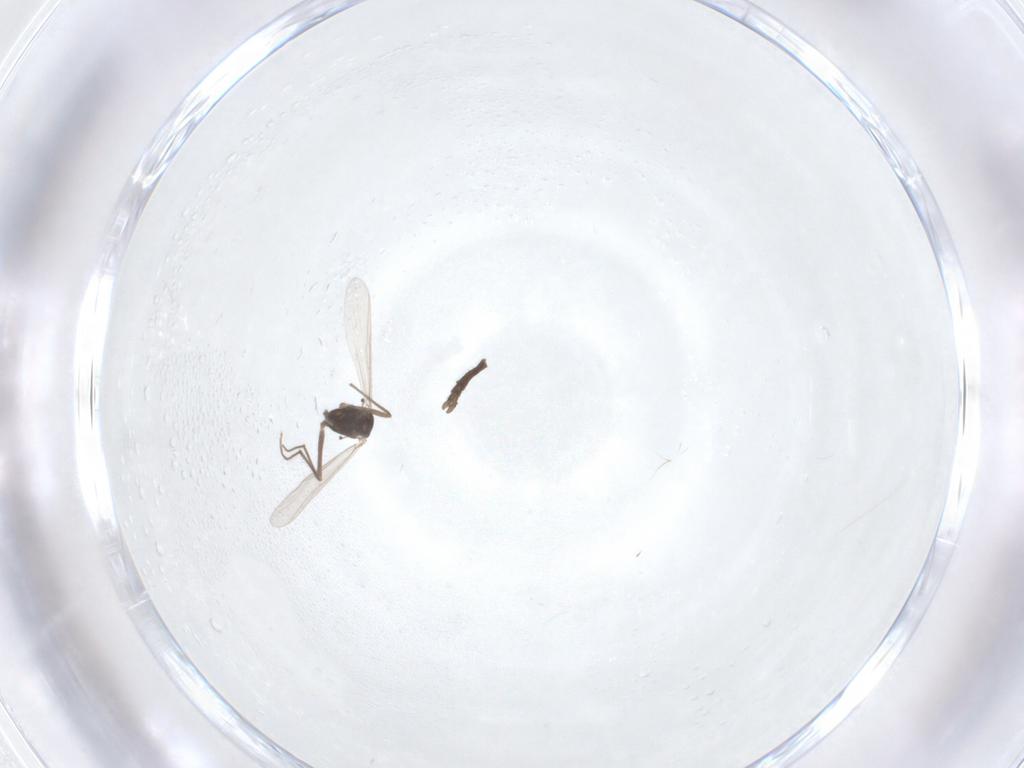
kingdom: Animalia
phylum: Arthropoda
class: Insecta
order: Diptera
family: Chironomidae
